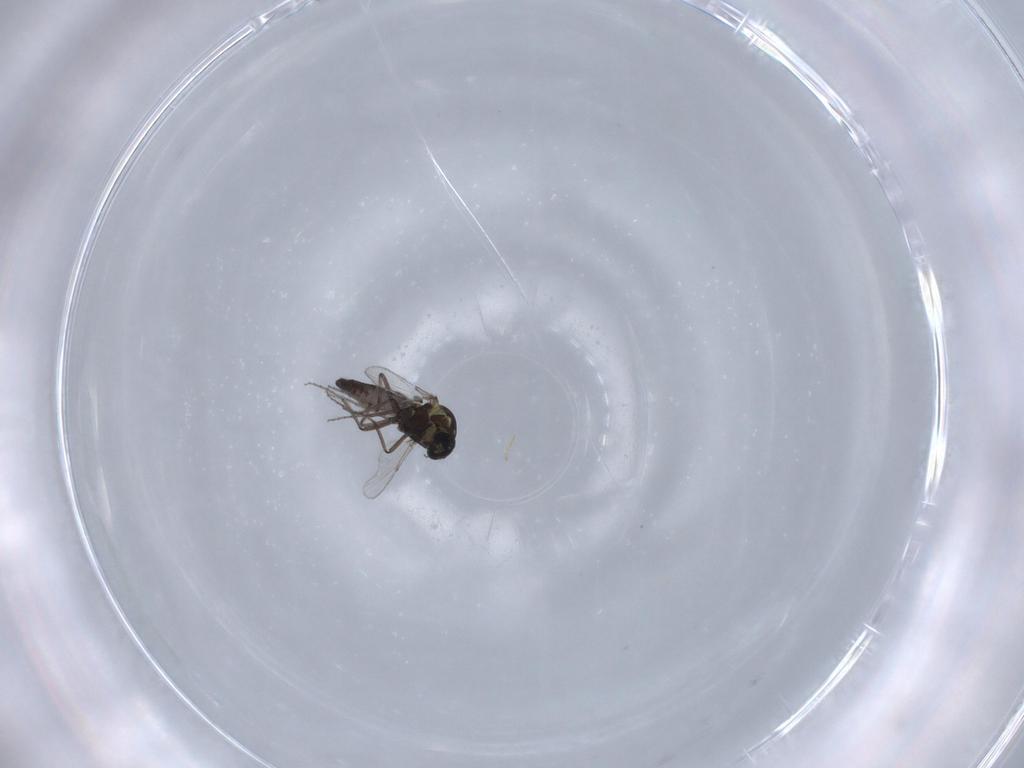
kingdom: Animalia
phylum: Arthropoda
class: Insecta
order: Diptera
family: Ceratopogonidae
